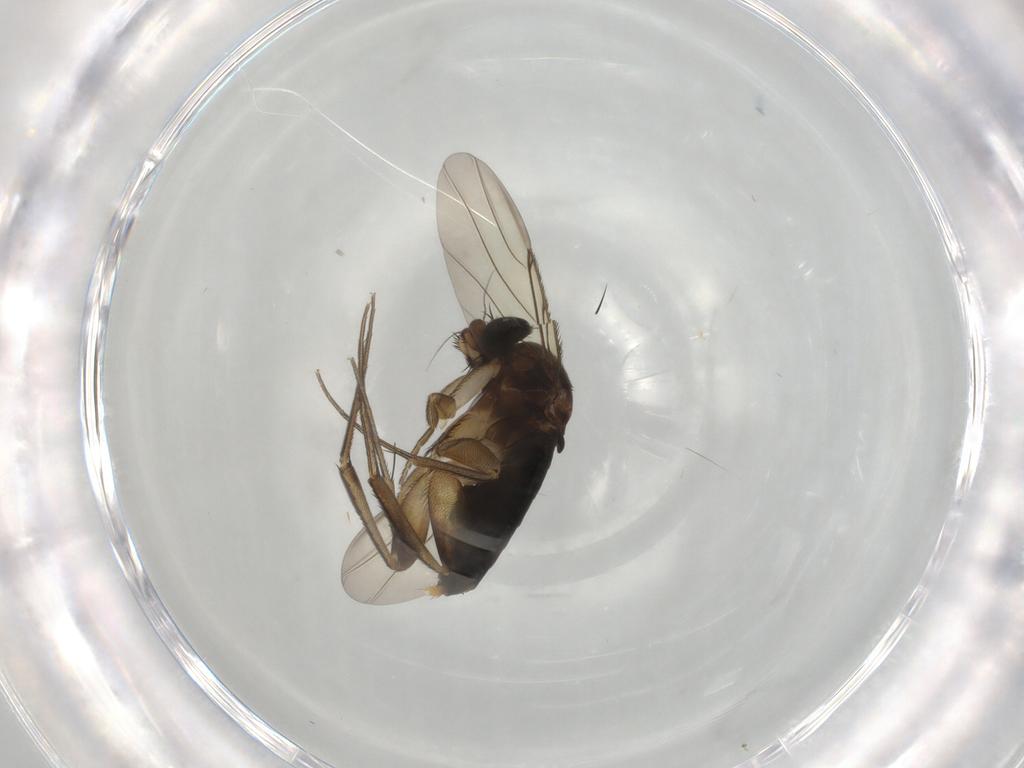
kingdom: Animalia
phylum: Arthropoda
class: Insecta
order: Diptera
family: Phoridae
